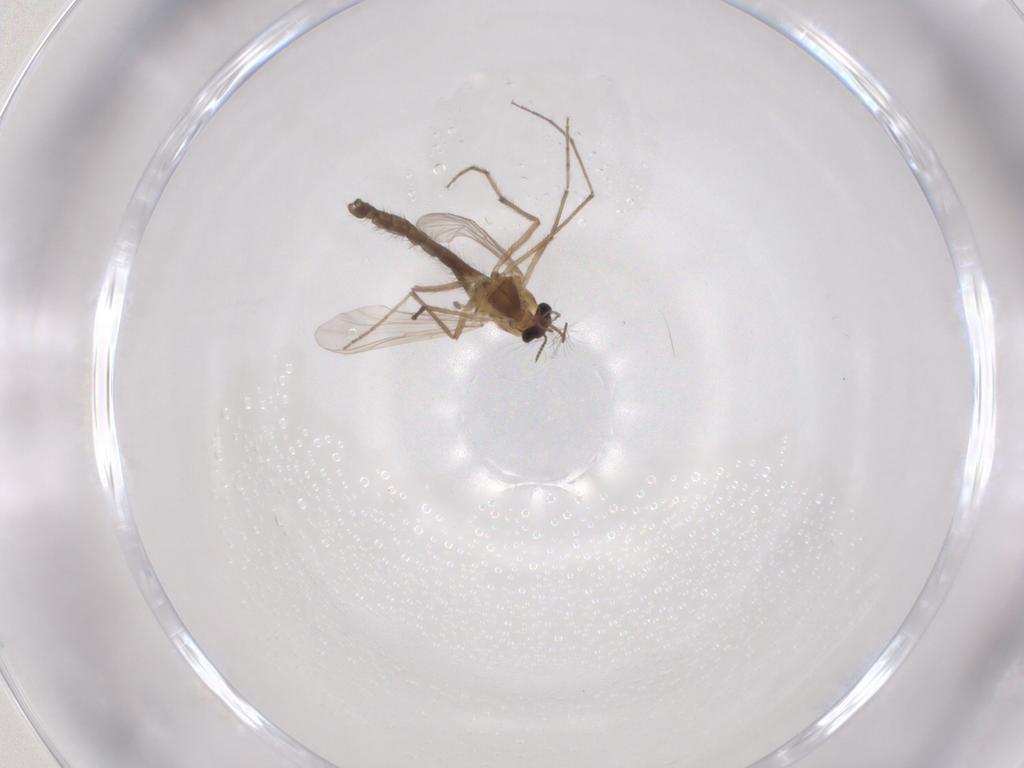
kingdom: Animalia
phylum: Arthropoda
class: Insecta
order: Diptera
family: Chironomidae
